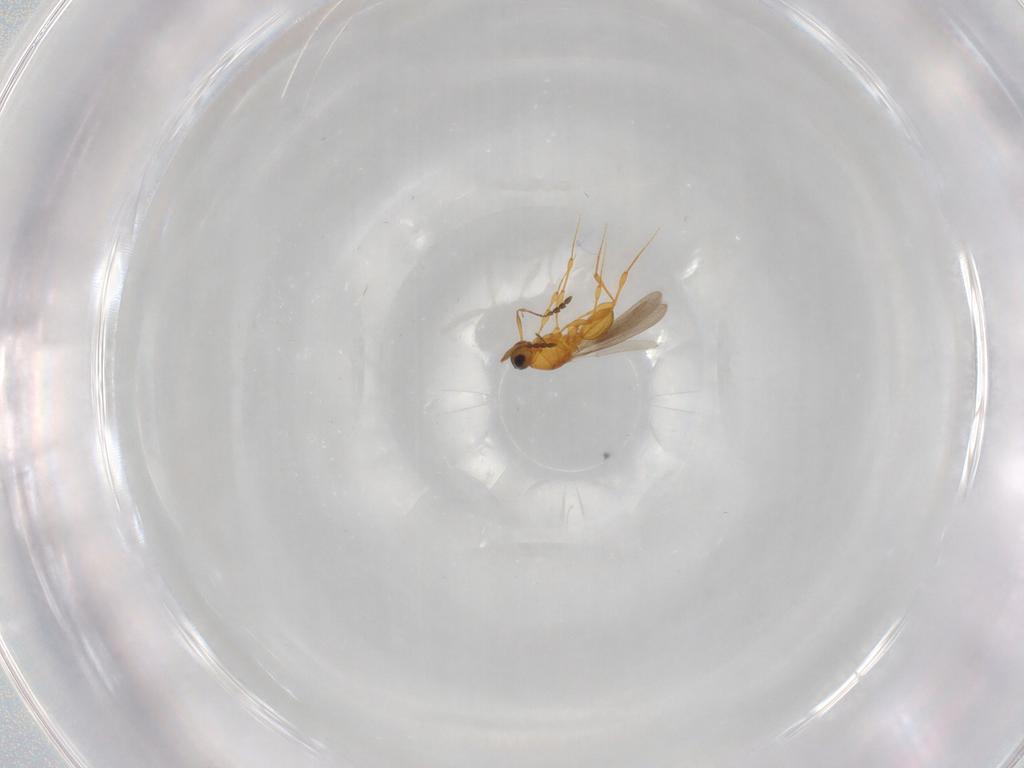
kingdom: Animalia
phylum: Arthropoda
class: Insecta
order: Hymenoptera
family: Platygastridae
